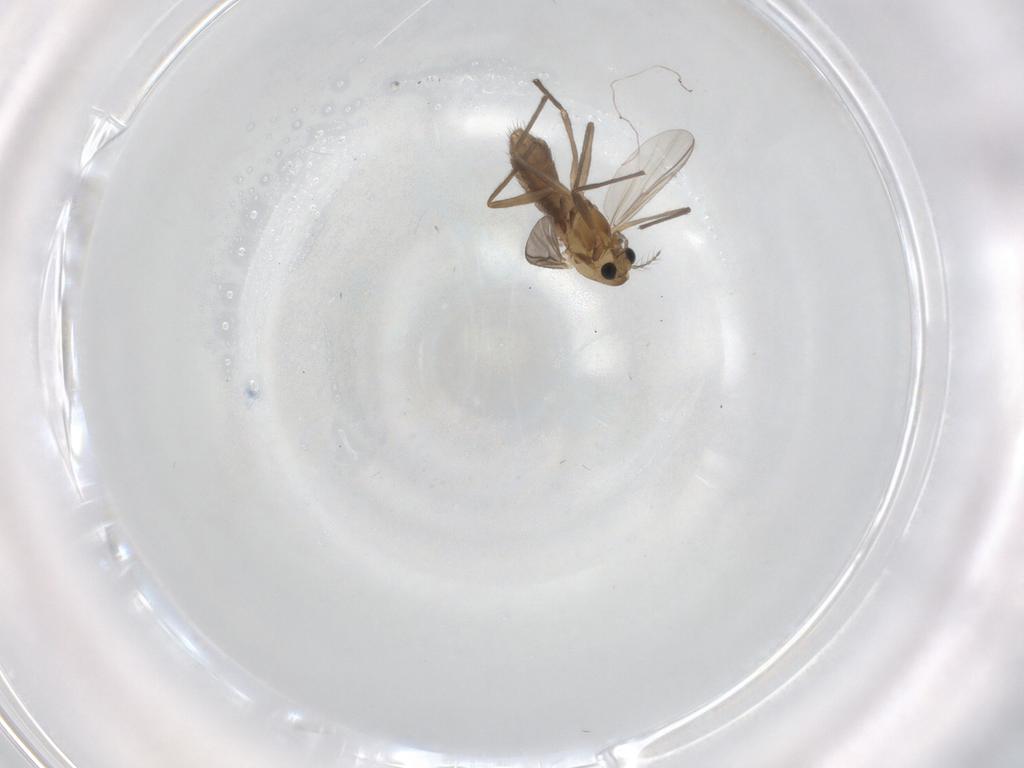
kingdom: Animalia
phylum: Arthropoda
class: Insecta
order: Diptera
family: Chironomidae
